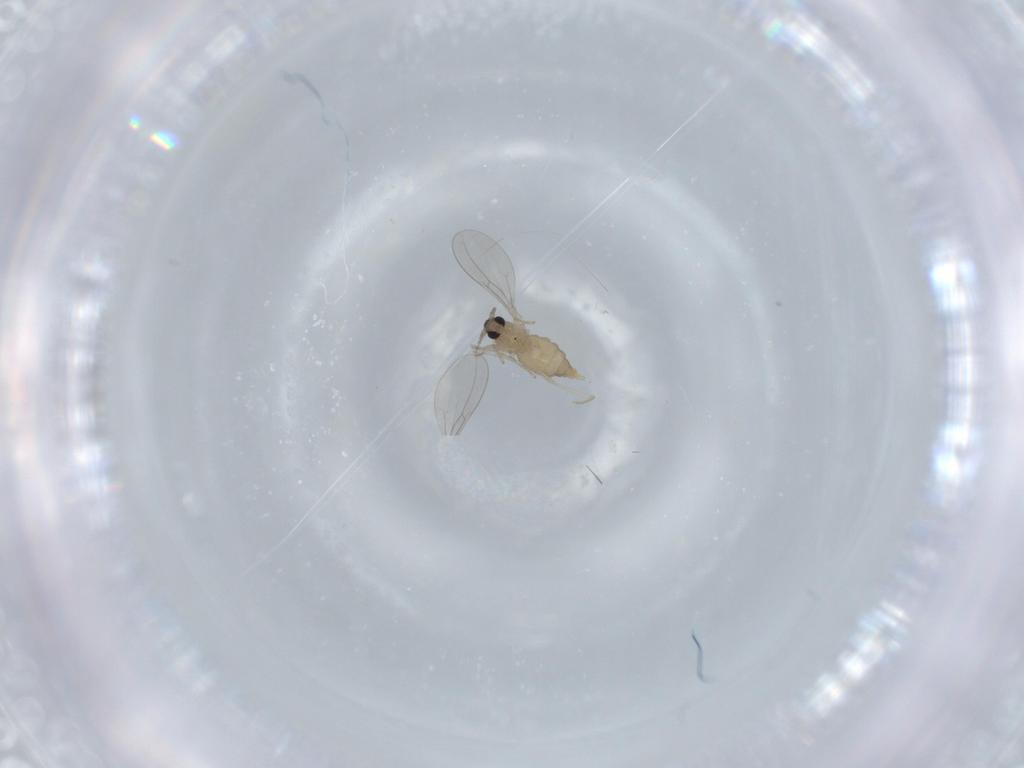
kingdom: Animalia
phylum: Arthropoda
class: Insecta
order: Diptera
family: Cecidomyiidae
